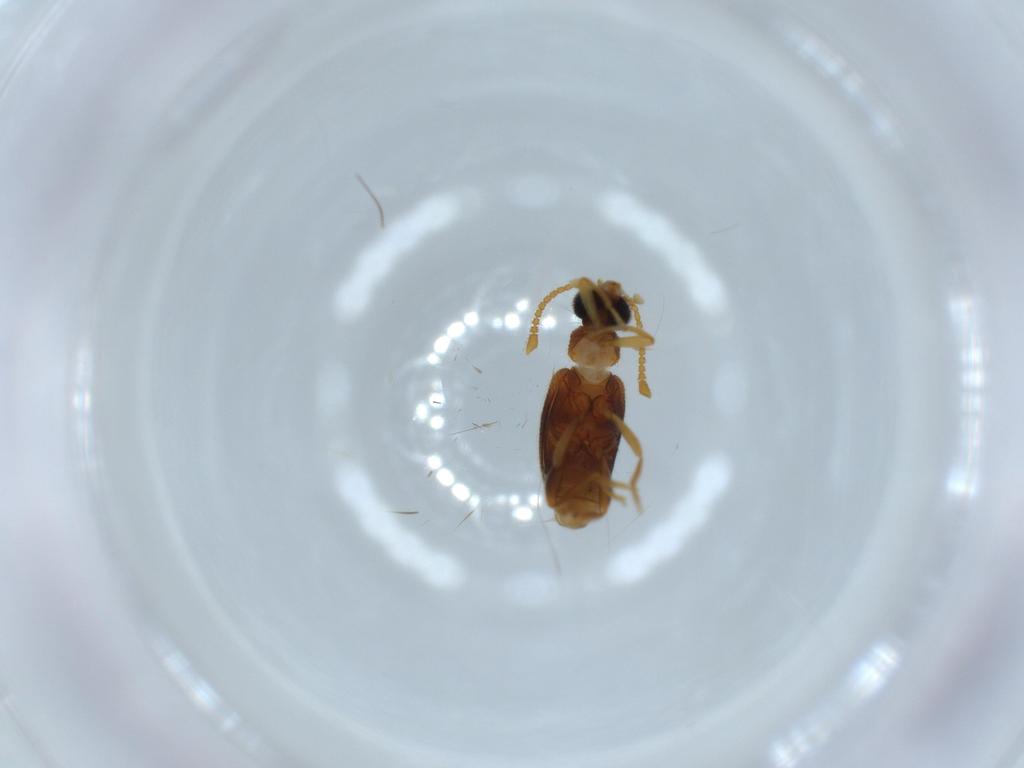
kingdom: Animalia
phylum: Arthropoda
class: Insecta
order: Coleoptera
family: Aderidae
